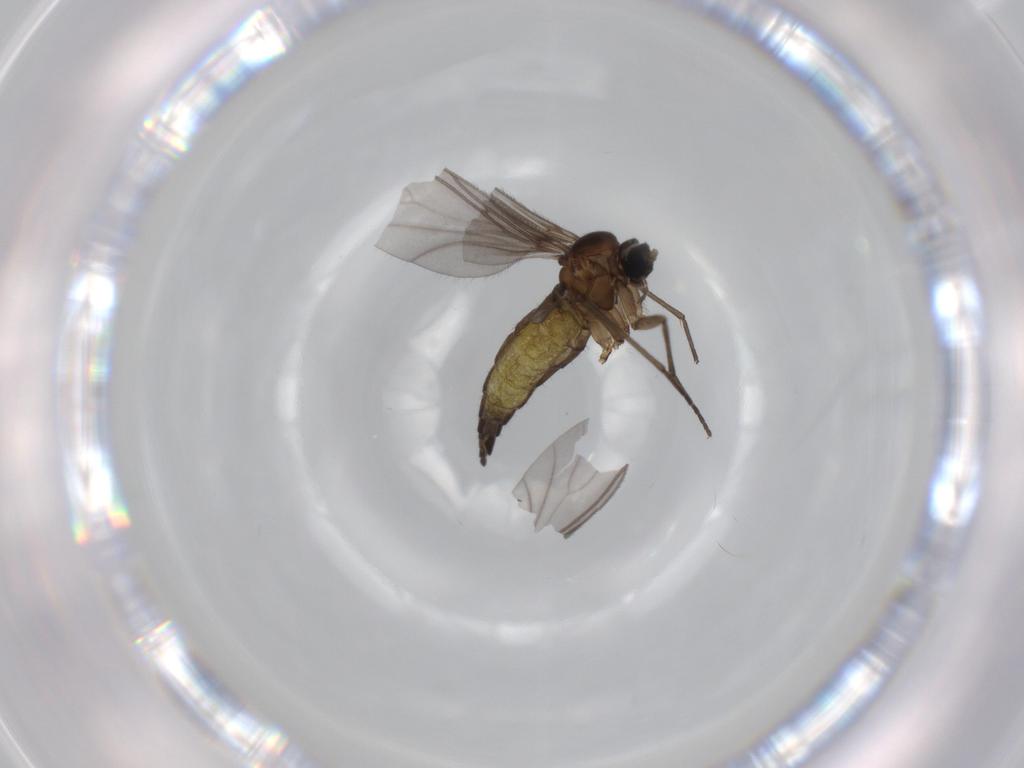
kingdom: Animalia
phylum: Arthropoda
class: Insecta
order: Diptera
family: Sciaridae
